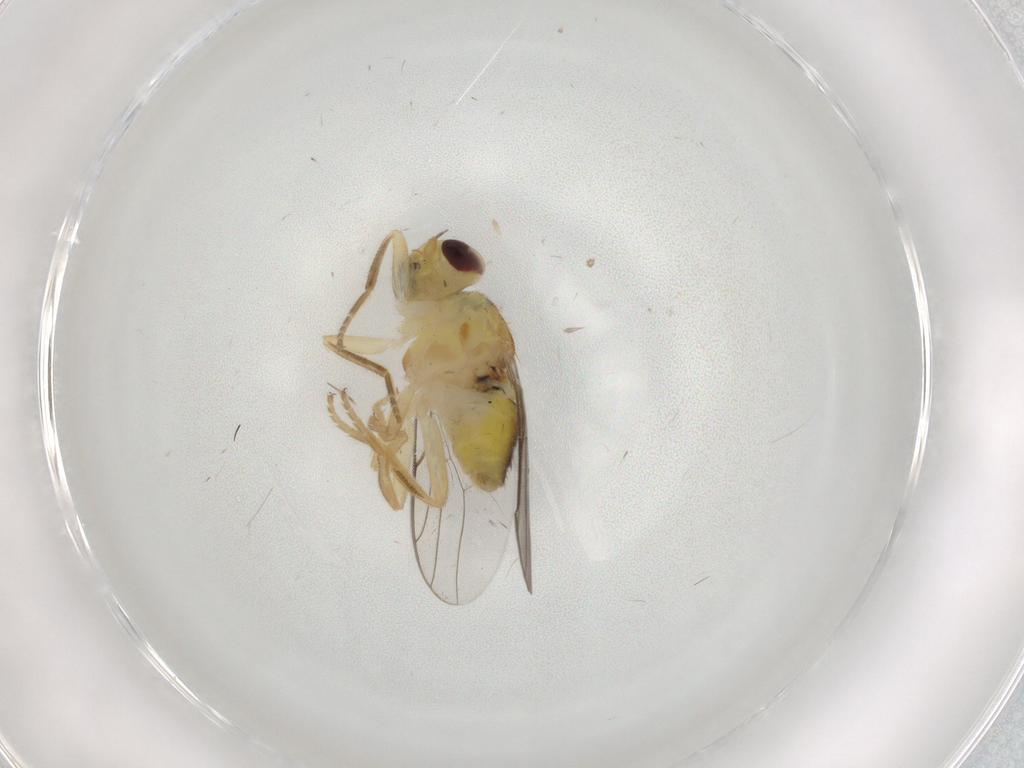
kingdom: Animalia
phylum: Arthropoda
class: Insecta
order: Diptera
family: Chloropidae
